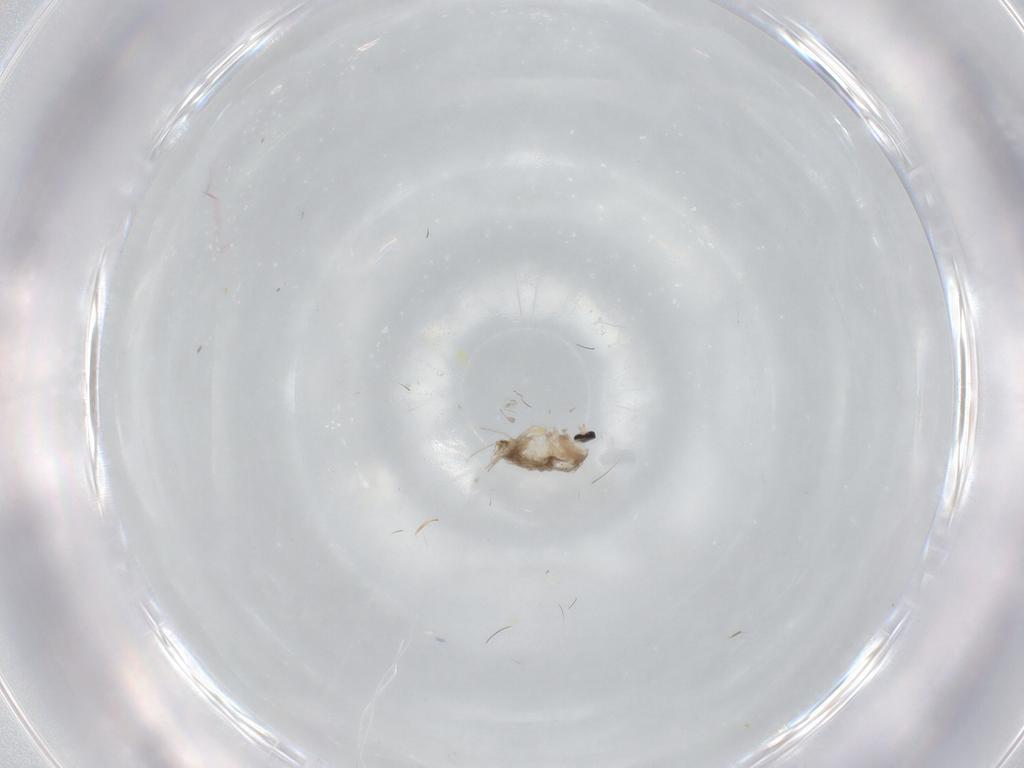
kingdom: Animalia
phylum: Arthropoda
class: Insecta
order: Diptera
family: Cecidomyiidae
